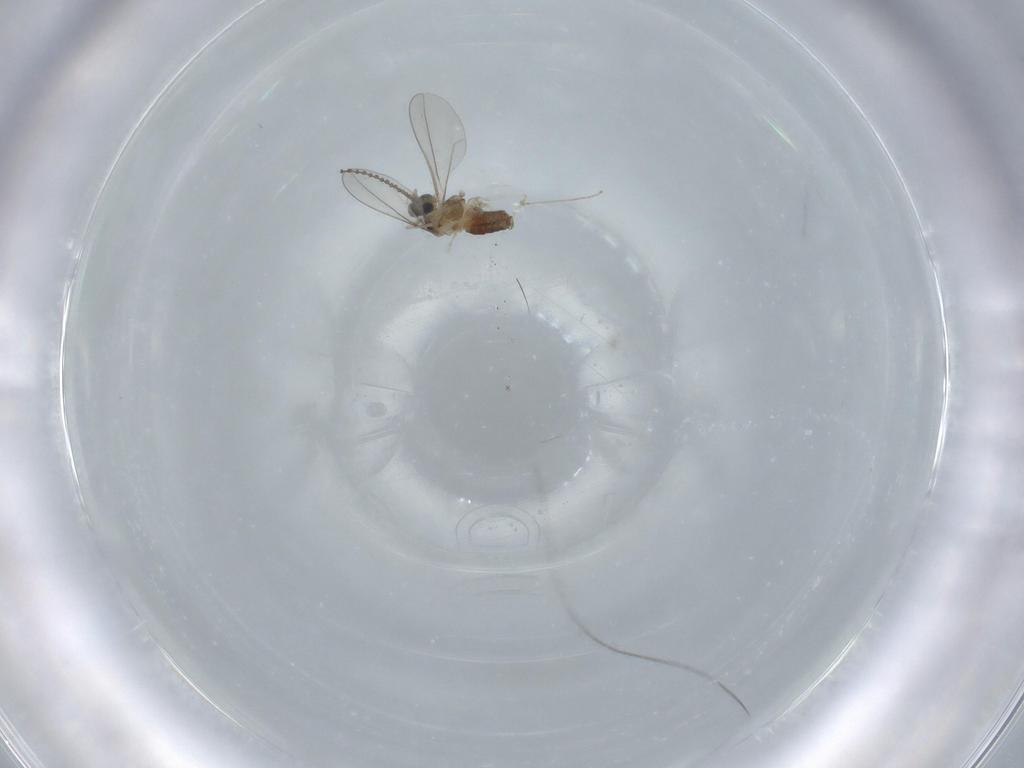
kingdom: Animalia
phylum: Arthropoda
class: Insecta
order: Diptera
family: Cecidomyiidae
